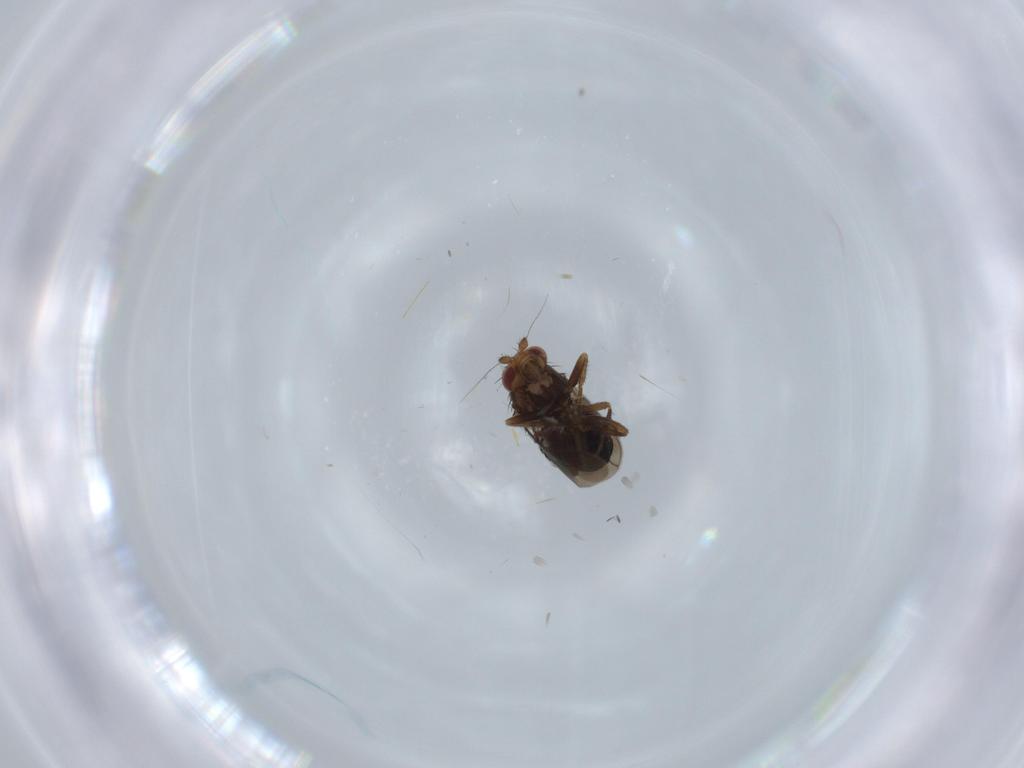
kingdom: Animalia
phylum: Arthropoda
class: Insecta
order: Diptera
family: Sphaeroceridae
